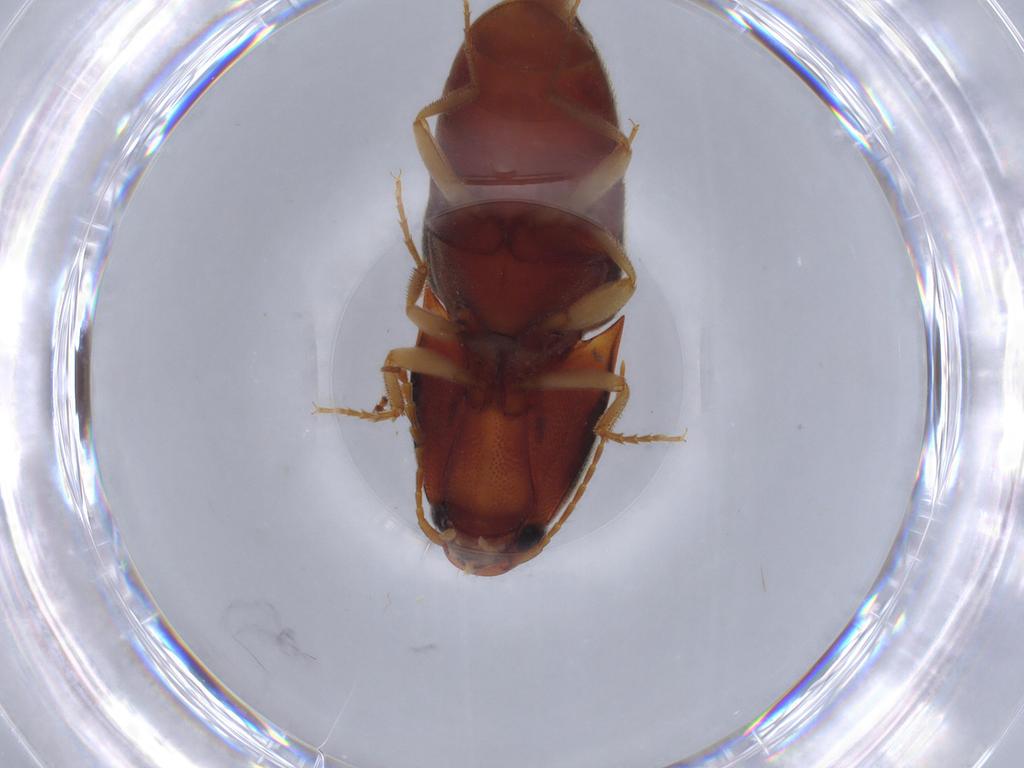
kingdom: Animalia
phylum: Arthropoda
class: Insecta
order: Coleoptera
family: Elateridae
